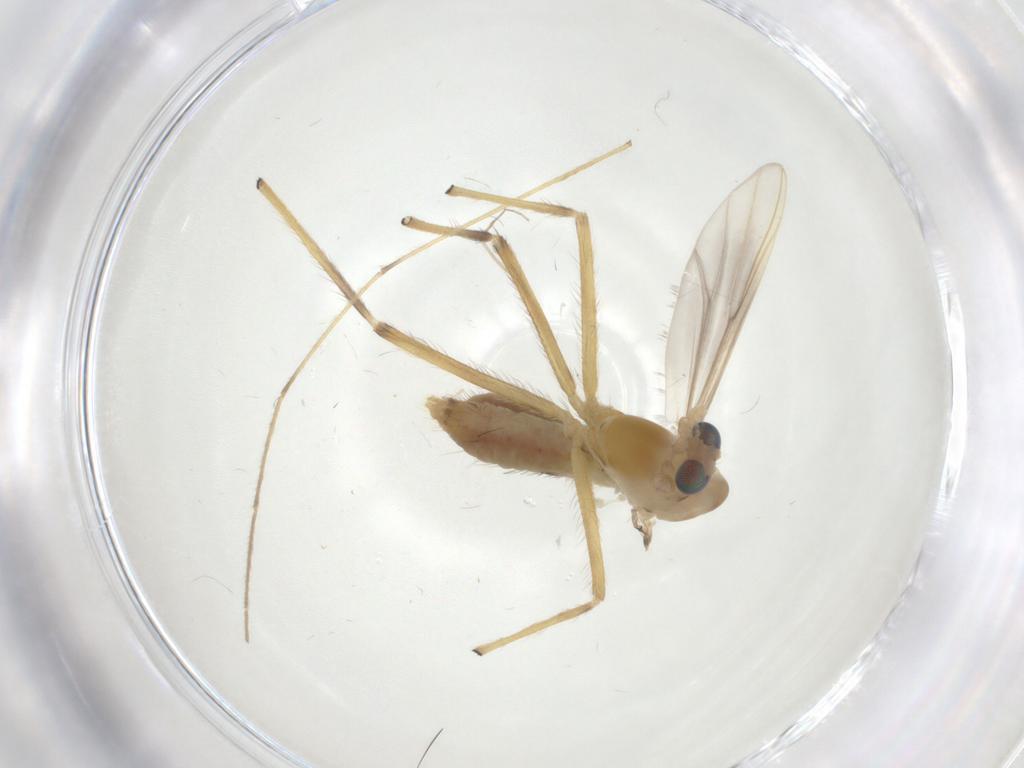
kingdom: Animalia
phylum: Arthropoda
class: Insecta
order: Diptera
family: Chironomidae
